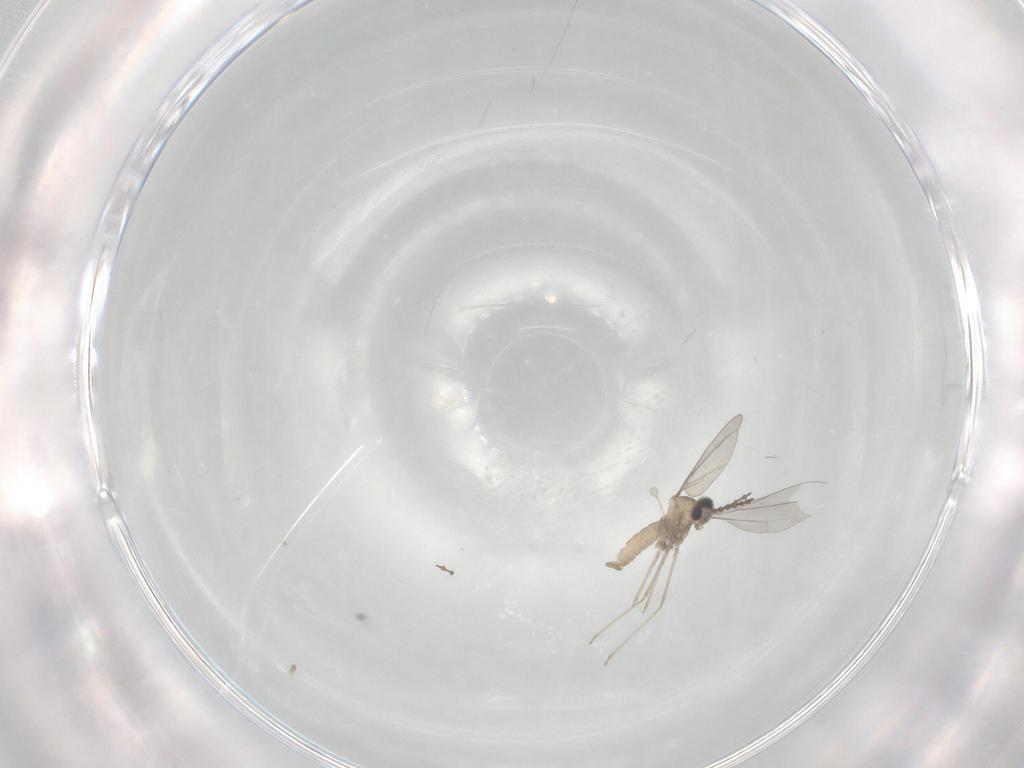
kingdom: Animalia
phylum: Arthropoda
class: Insecta
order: Diptera
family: Cecidomyiidae
